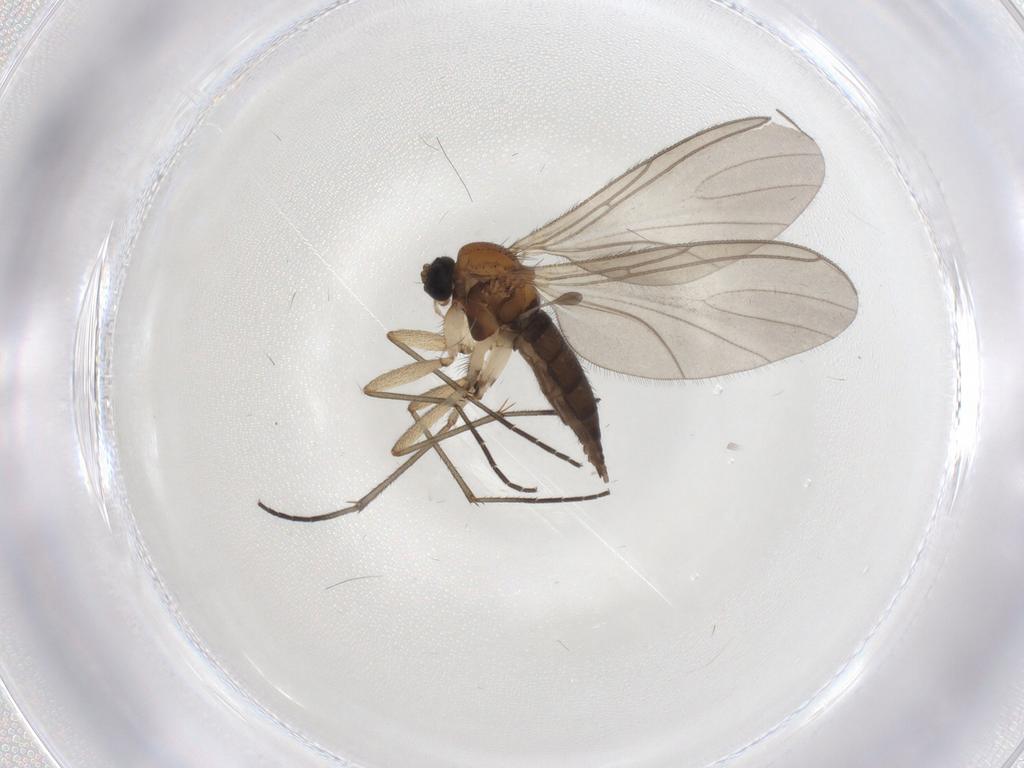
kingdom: Animalia
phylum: Arthropoda
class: Insecta
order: Diptera
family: Sciaridae
